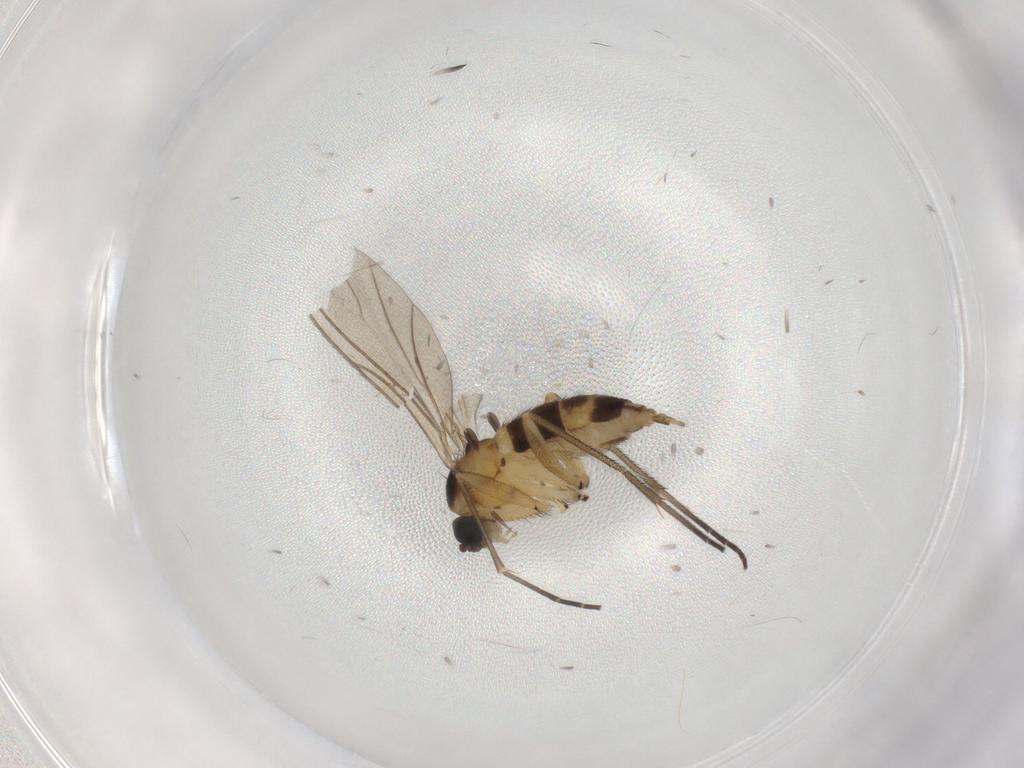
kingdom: Animalia
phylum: Arthropoda
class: Insecta
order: Diptera
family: Sciaridae
